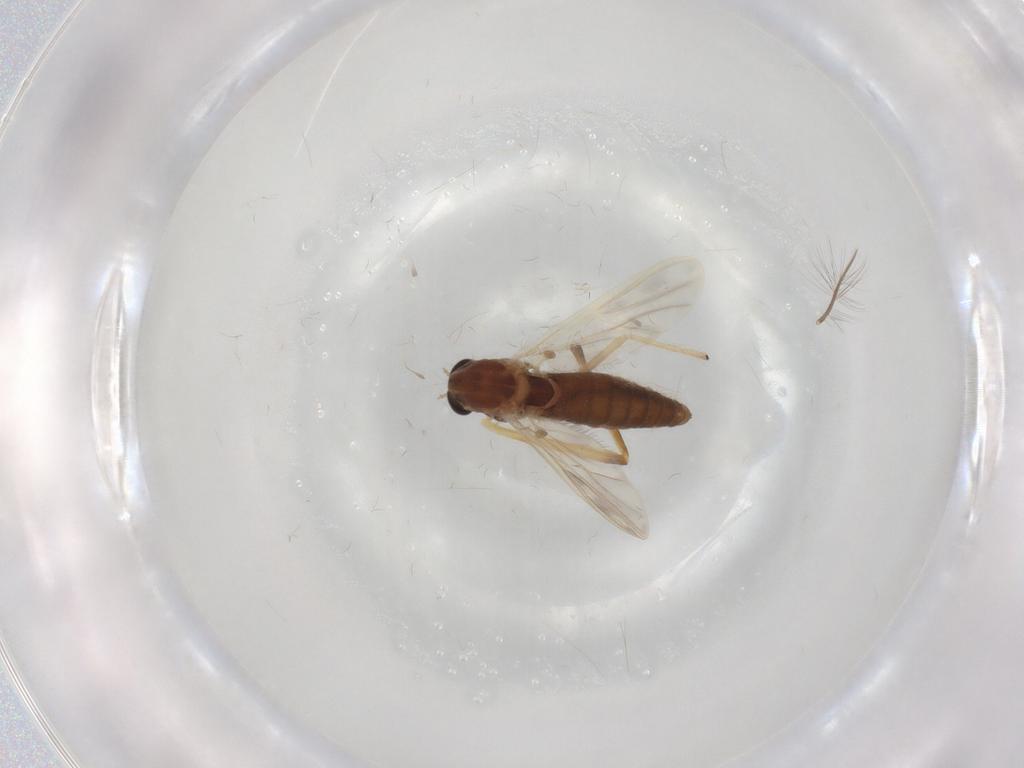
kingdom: Animalia
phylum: Arthropoda
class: Insecta
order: Diptera
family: Chironomidae
